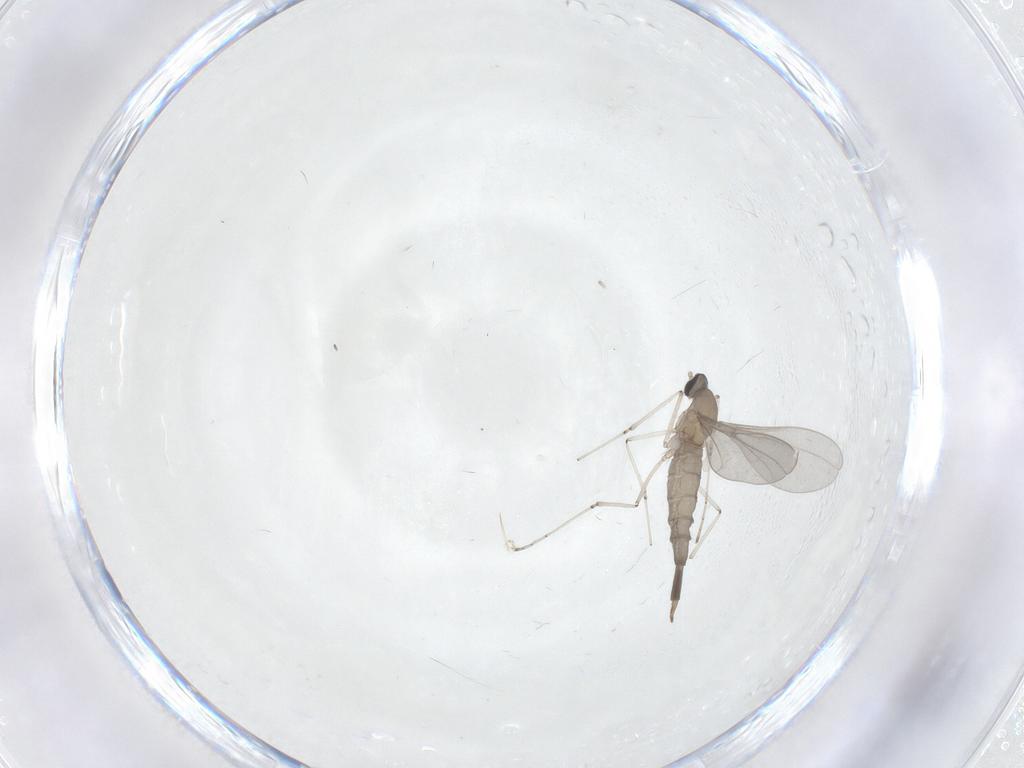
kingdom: Animalia
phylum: Arthropoda
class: Insecta
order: Diptera
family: Cecidomyiidae
